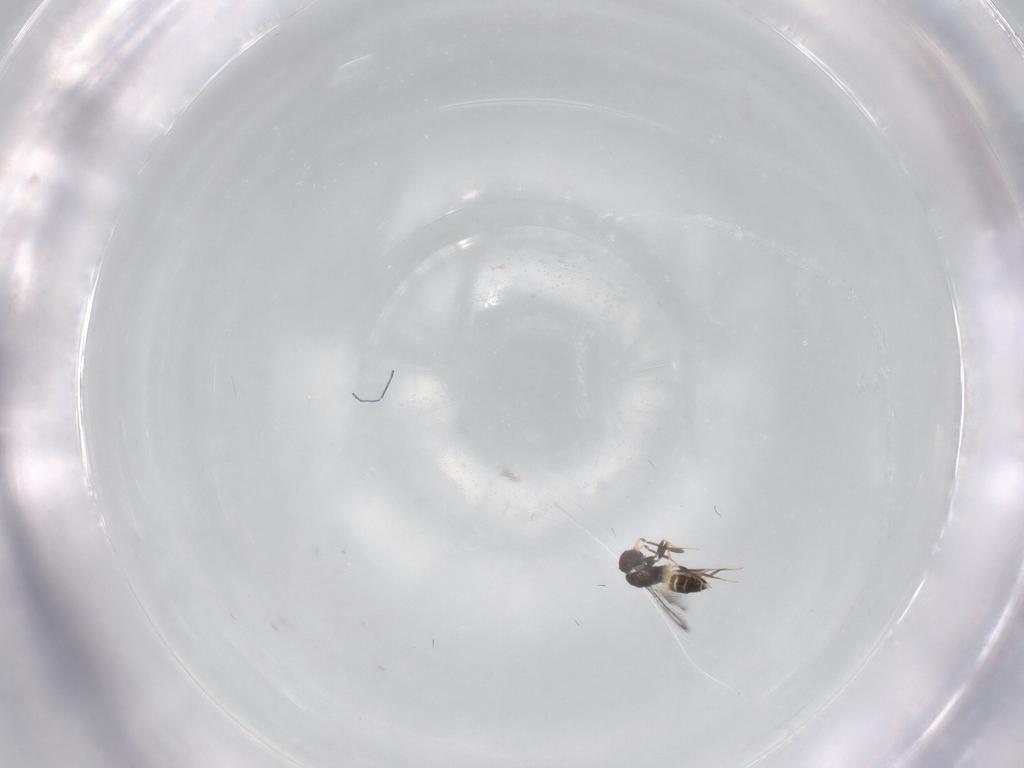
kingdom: Animalia
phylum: Arthropoda
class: Insecta
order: Hymenoptera
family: Mymaridae
